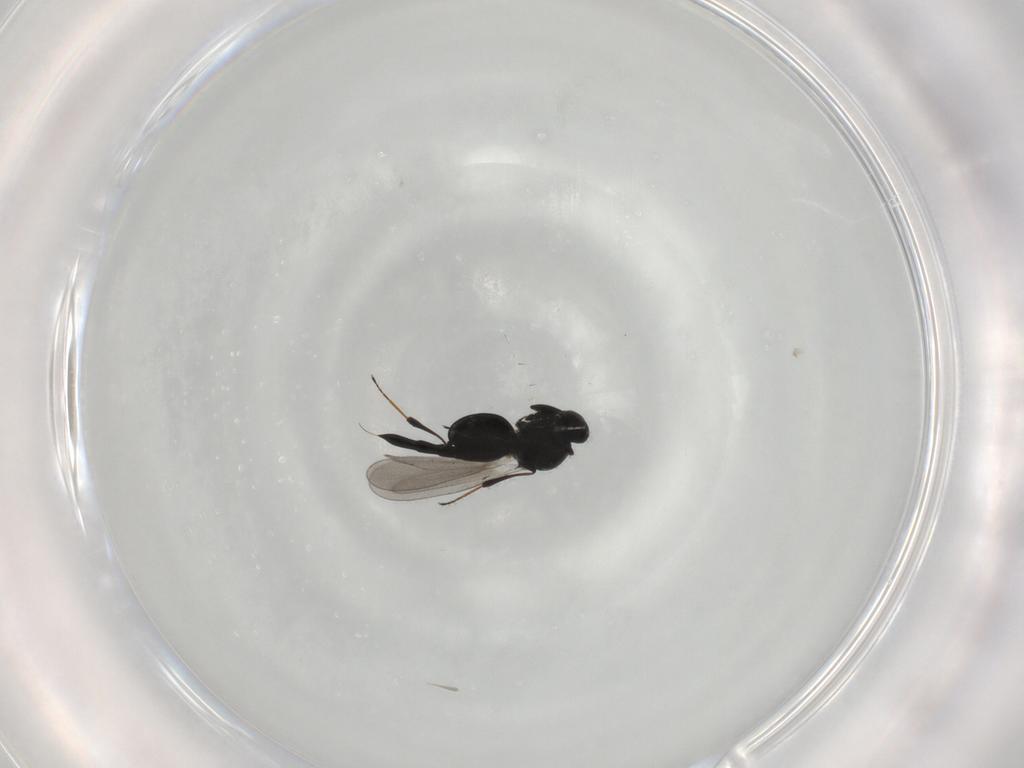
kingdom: Animalia
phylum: Arthropoda
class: Insecta
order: Hymenoptera
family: Platygastridae
